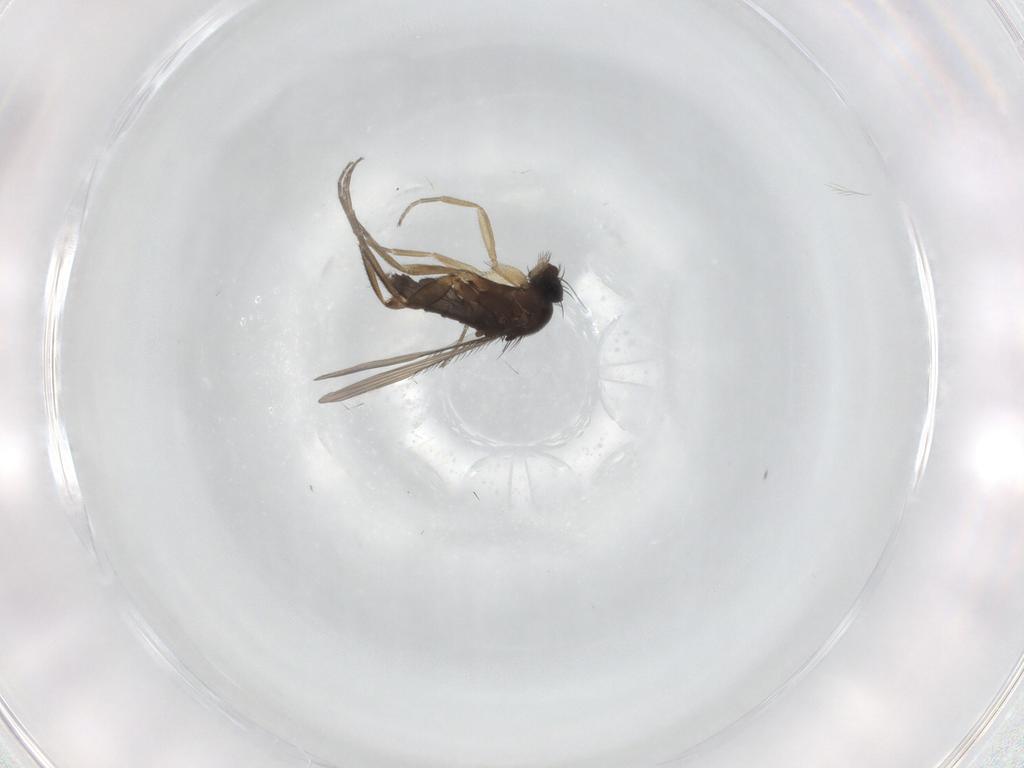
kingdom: Animalia
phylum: Arthropoda
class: Insecta
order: Diptera
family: Phoridae
